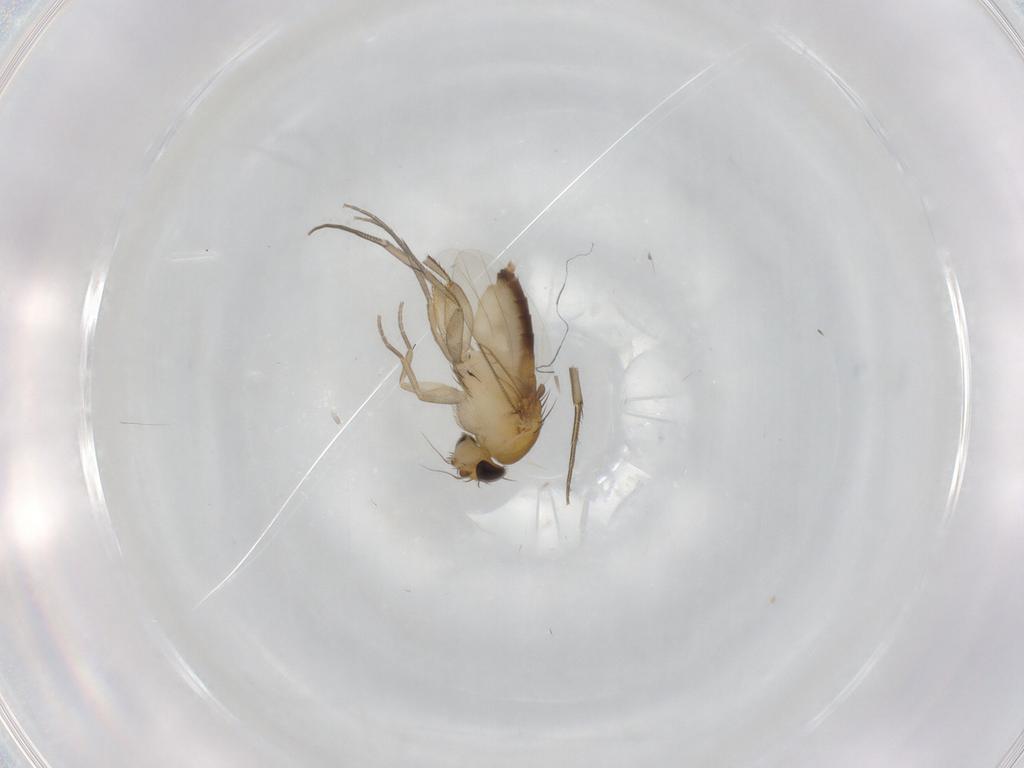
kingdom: Animalia
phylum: Arthropoda
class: Insecta
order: Diptera
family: Phoridae
